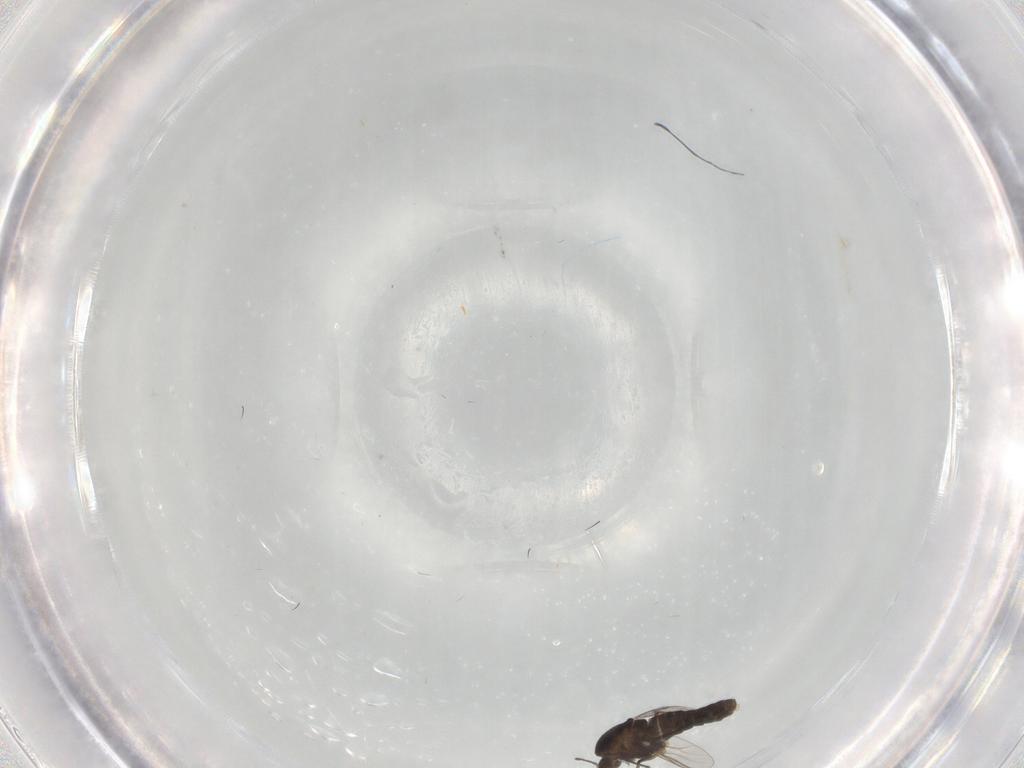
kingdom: Animalia
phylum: Arthropoda
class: Insecta
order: Diptera
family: Chironomidae
